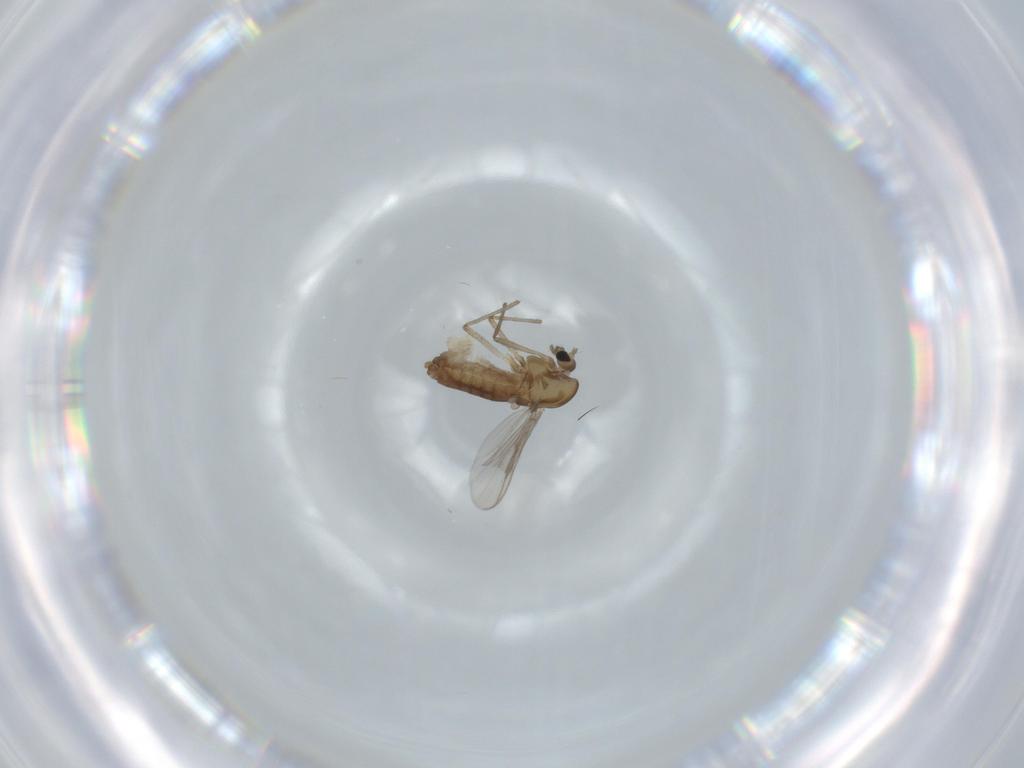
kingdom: Animalia
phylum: Arthropoda
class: Insecta
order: Diptera
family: Chironomidae
